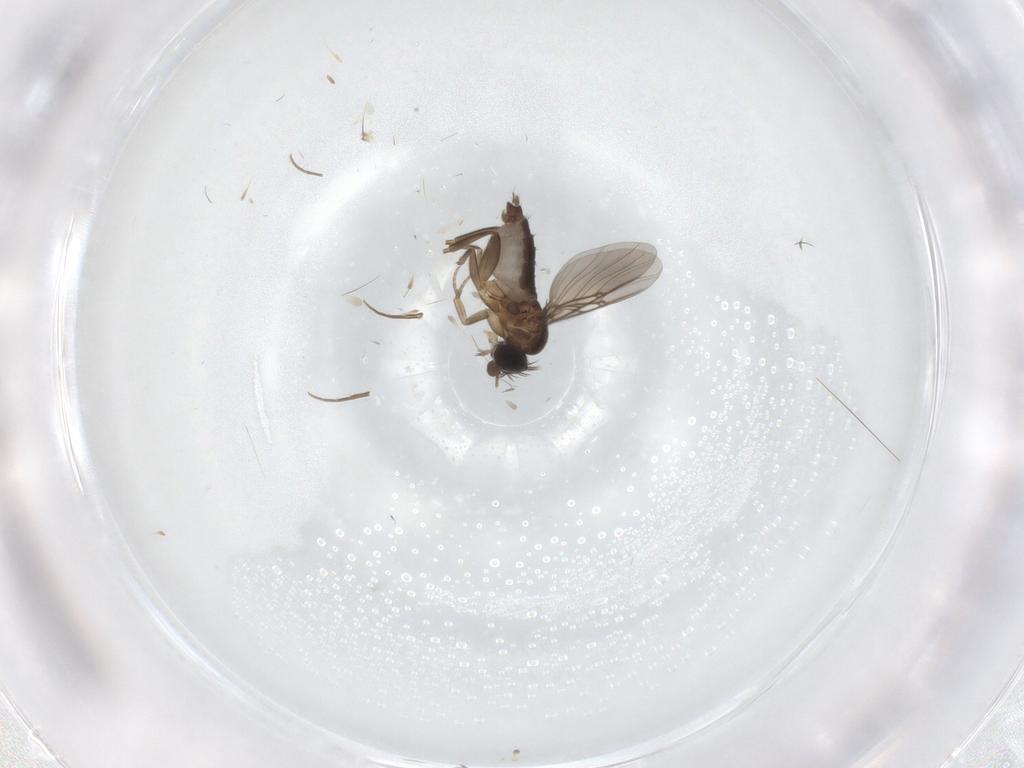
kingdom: Animalia
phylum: Arthropoda
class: Insecta
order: Diptera
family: Phoridae
